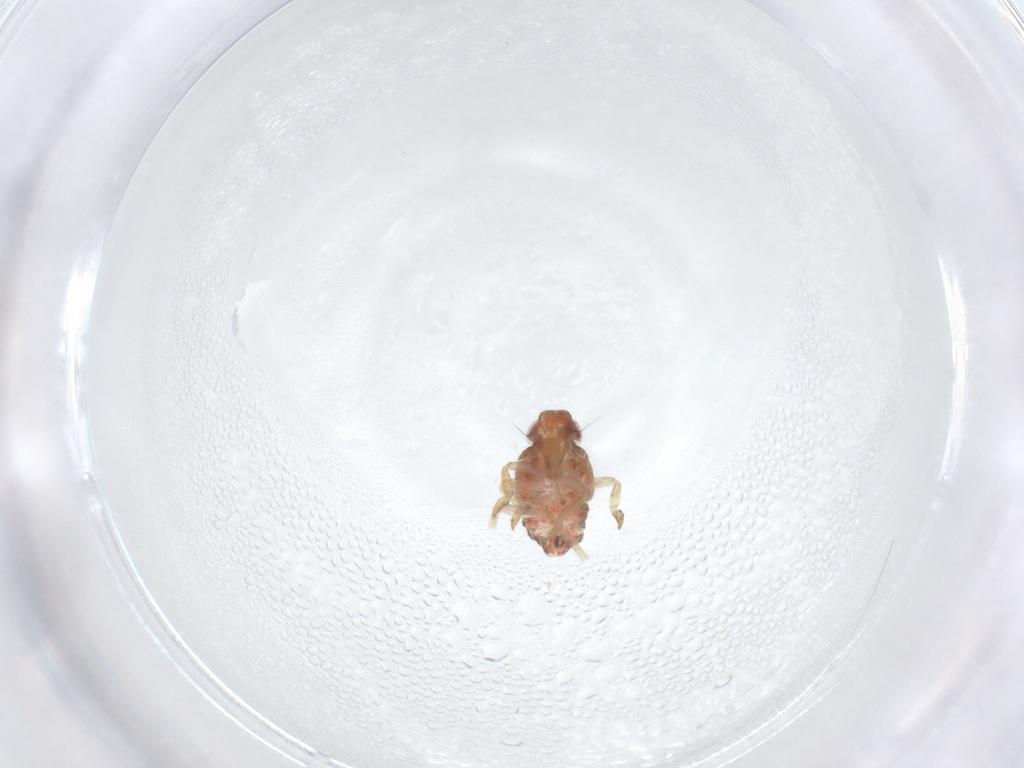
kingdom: Animalia
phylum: Arthropoda
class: Insecta
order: Hemiptera
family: Issidae
